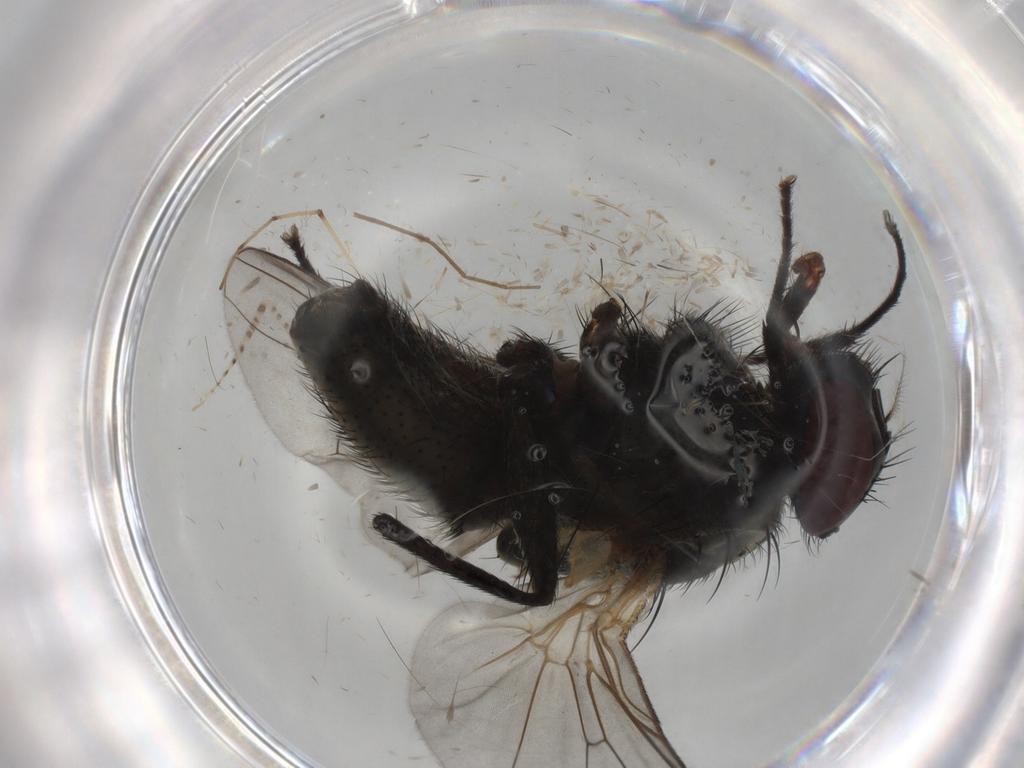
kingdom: Animalia
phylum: Arthropoda
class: Insecta
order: Diptera
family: Muscidae
